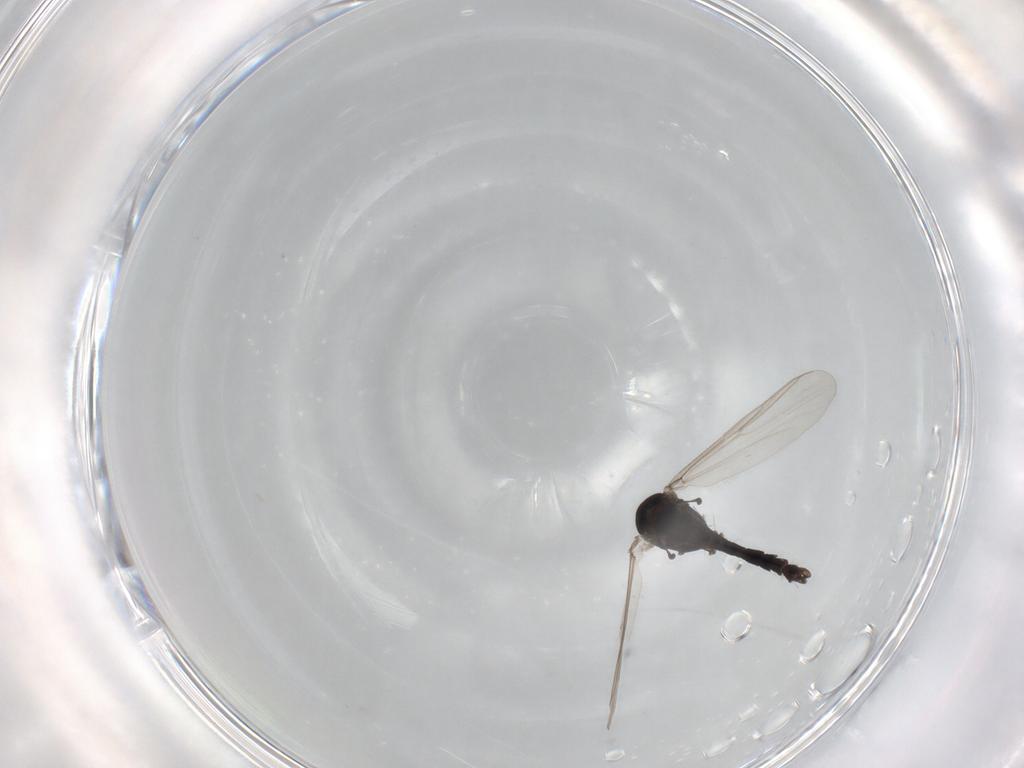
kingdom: Animalia
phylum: Arthropoda
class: Insecta
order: Diptera
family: Chironomidae
